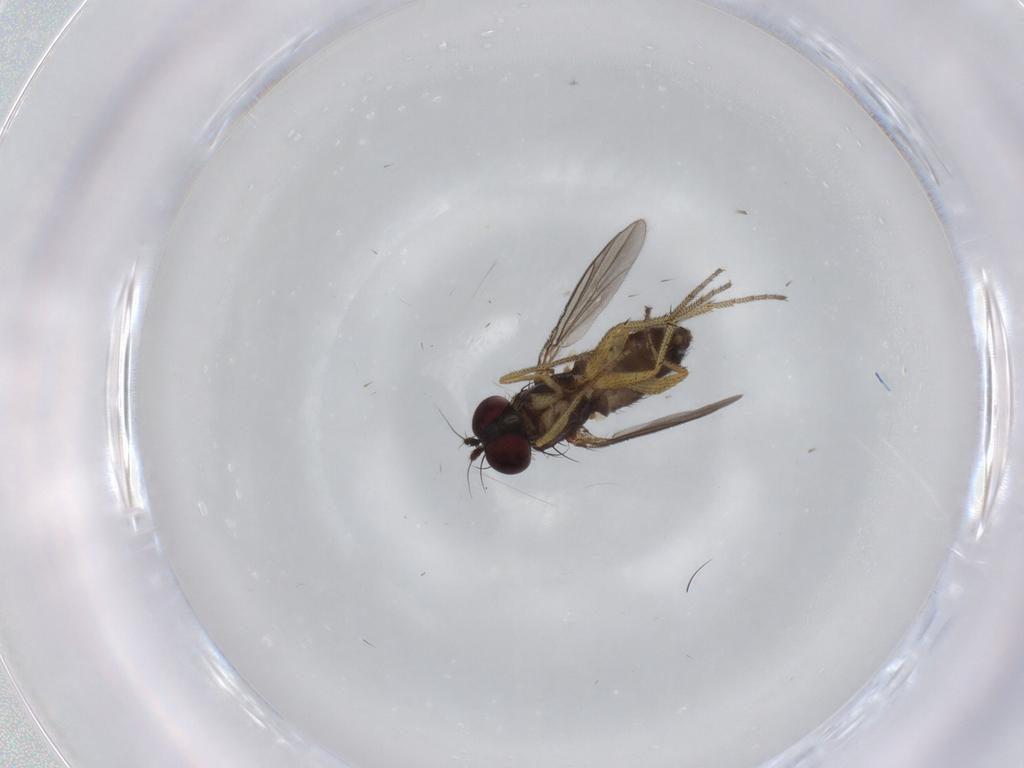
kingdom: Animalia
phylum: Arthropoda
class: Insecta
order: Diptera
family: Dolichopodidae
